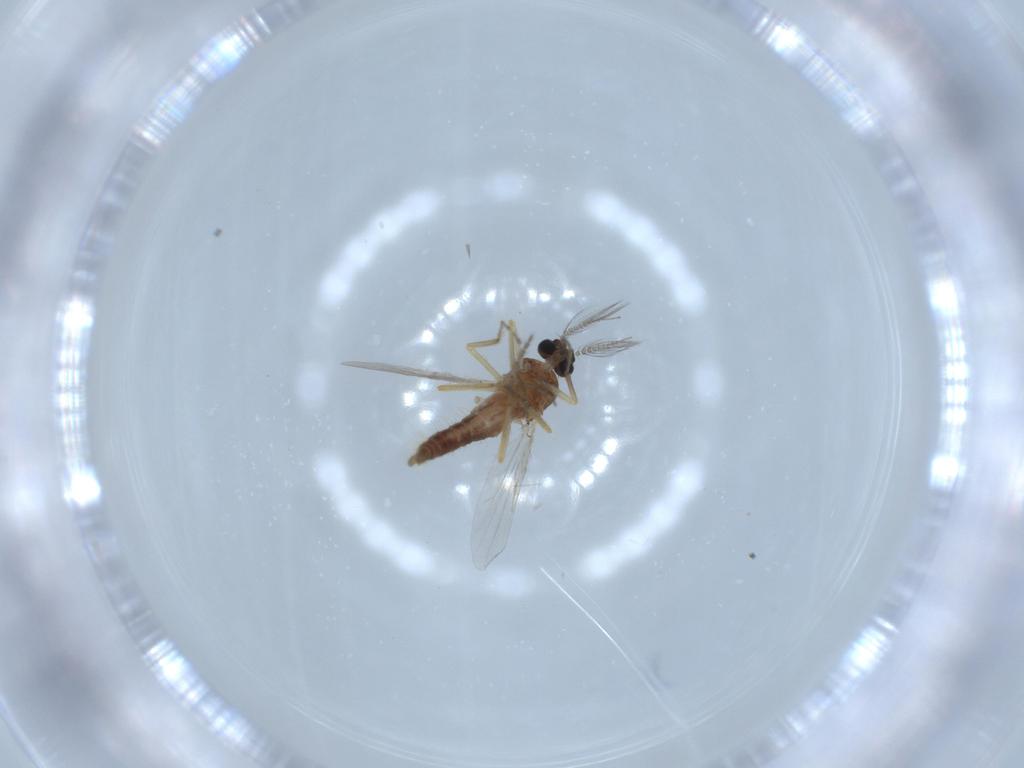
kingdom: Animalia
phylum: Arthropoda
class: Insecta
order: Diptera
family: Ceratopogonidae
